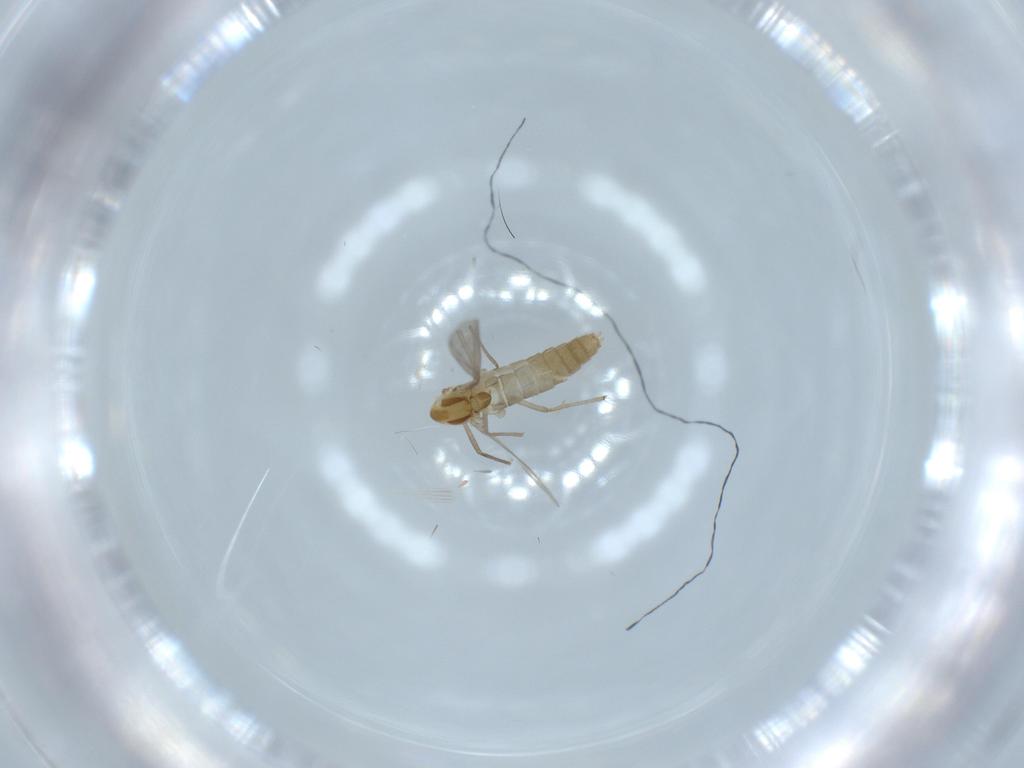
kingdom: Animalia
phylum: Arthropoda
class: Insecta
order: Diptera
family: Chironomidae
